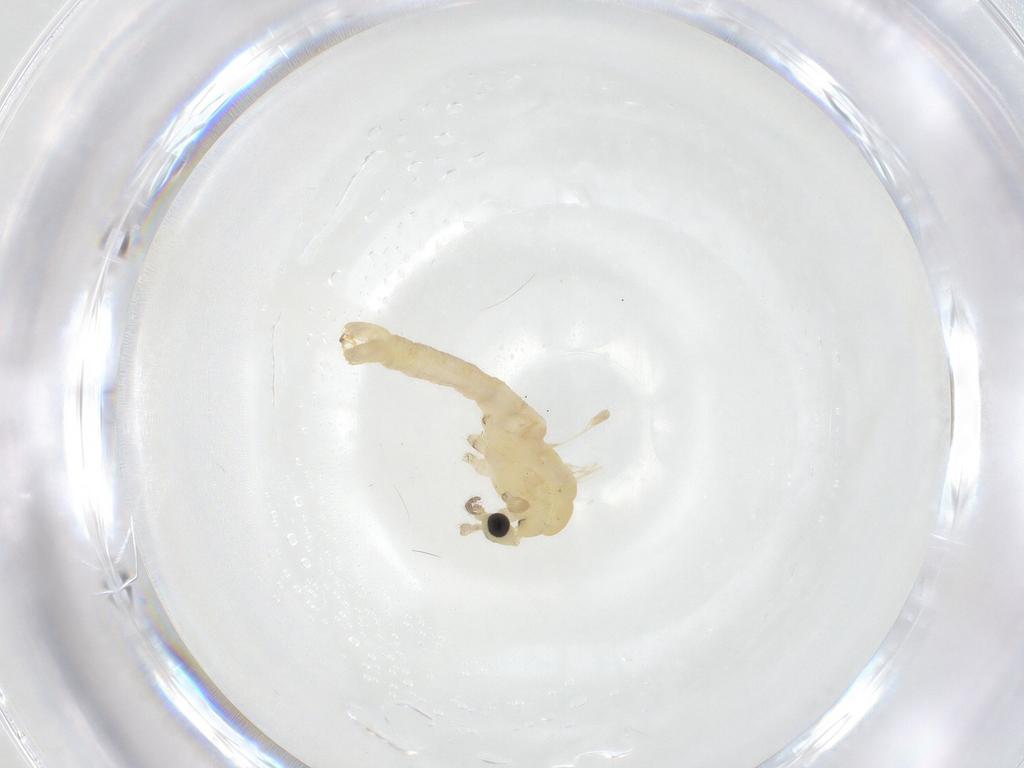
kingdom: Animalia
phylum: Arthropoda
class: Insecta
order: Diptera
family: Limoniidae
